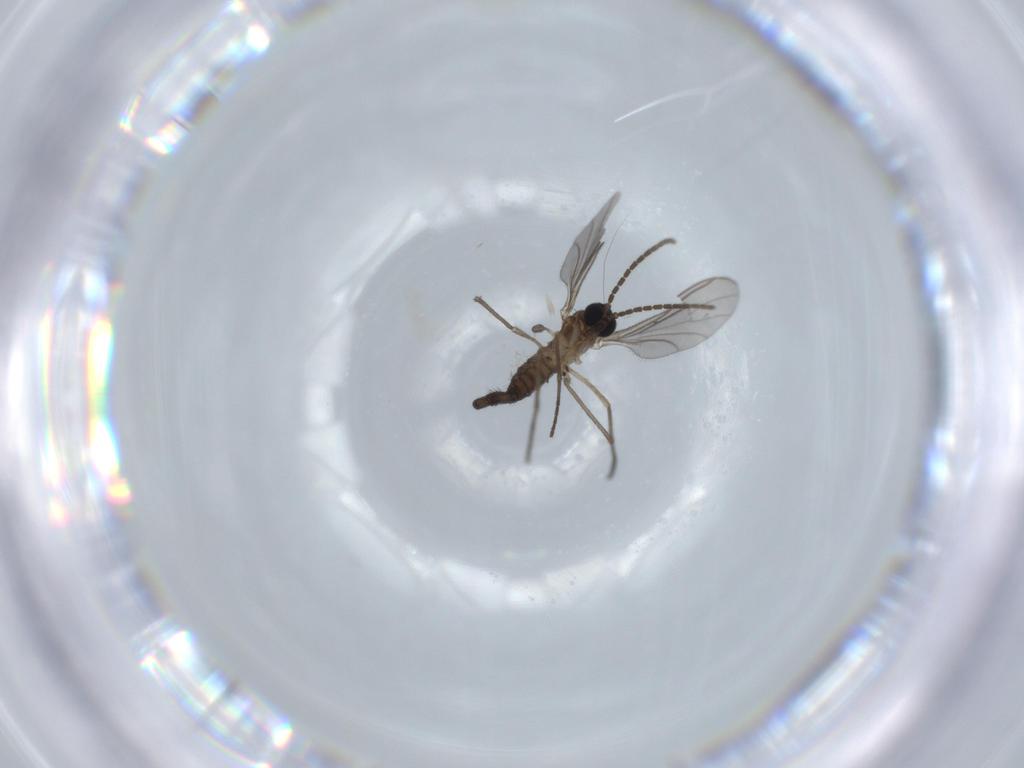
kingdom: Animalia
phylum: Arthropoda
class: Insecta
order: Diptera
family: Sciaridae
